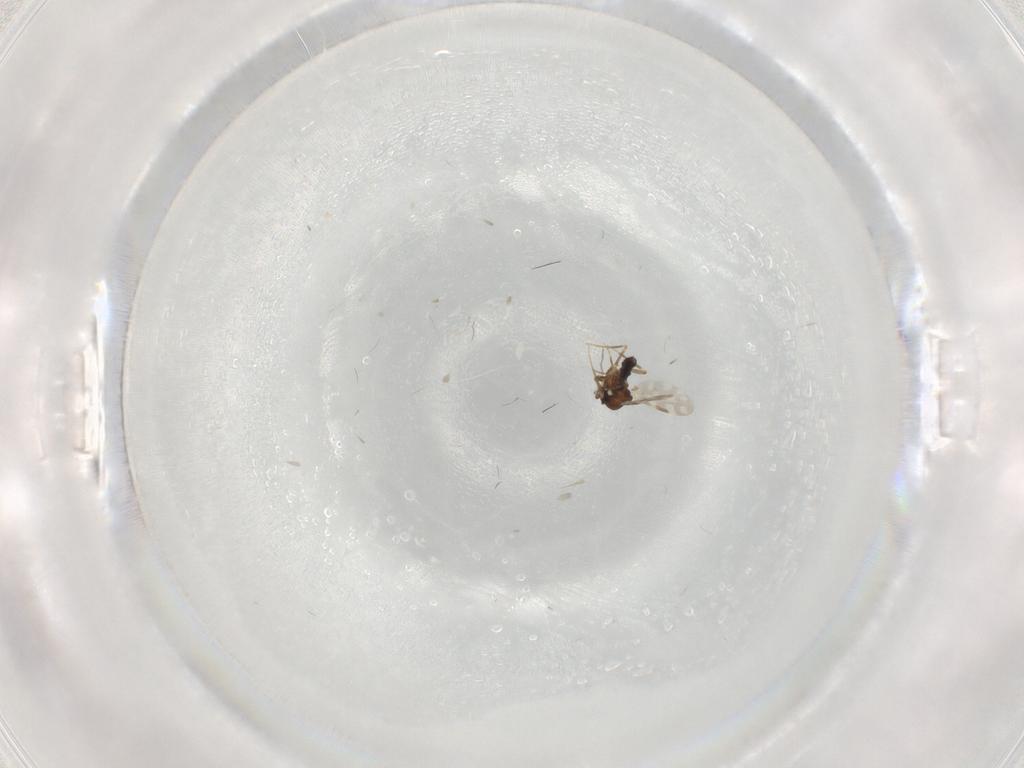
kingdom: Animalia
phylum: Arthropoda
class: Insecta
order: Diptera
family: Ceratopogonidae
